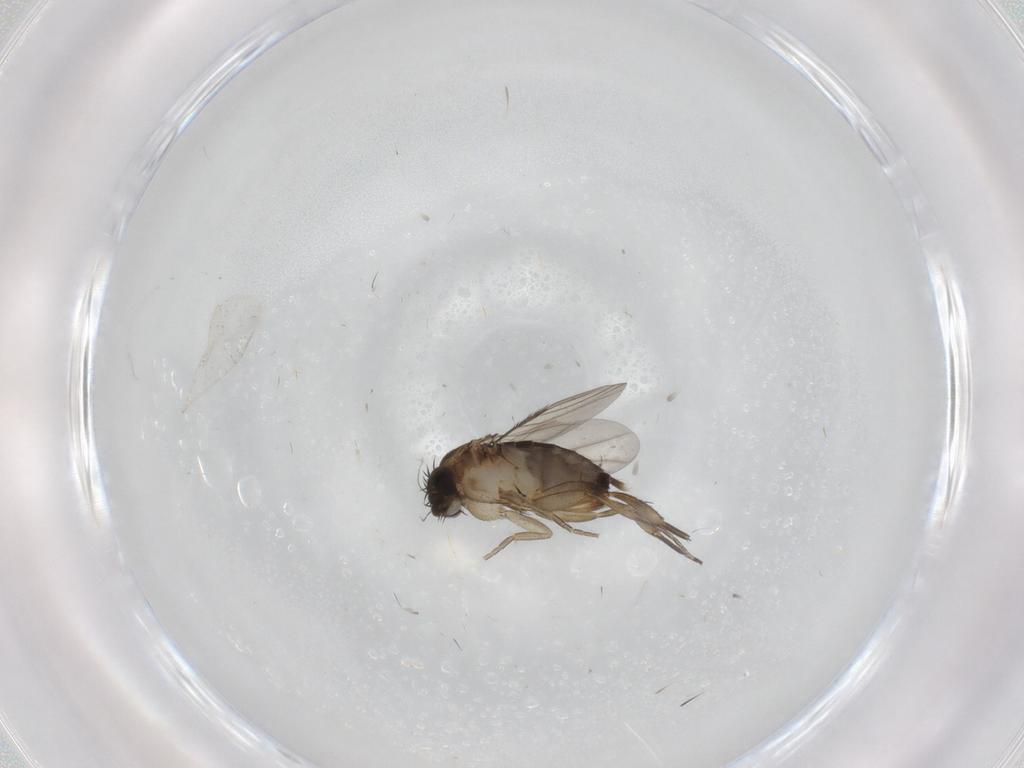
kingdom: Animalia
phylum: Arthropoda
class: Insecta
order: Diptera
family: Phoridae
